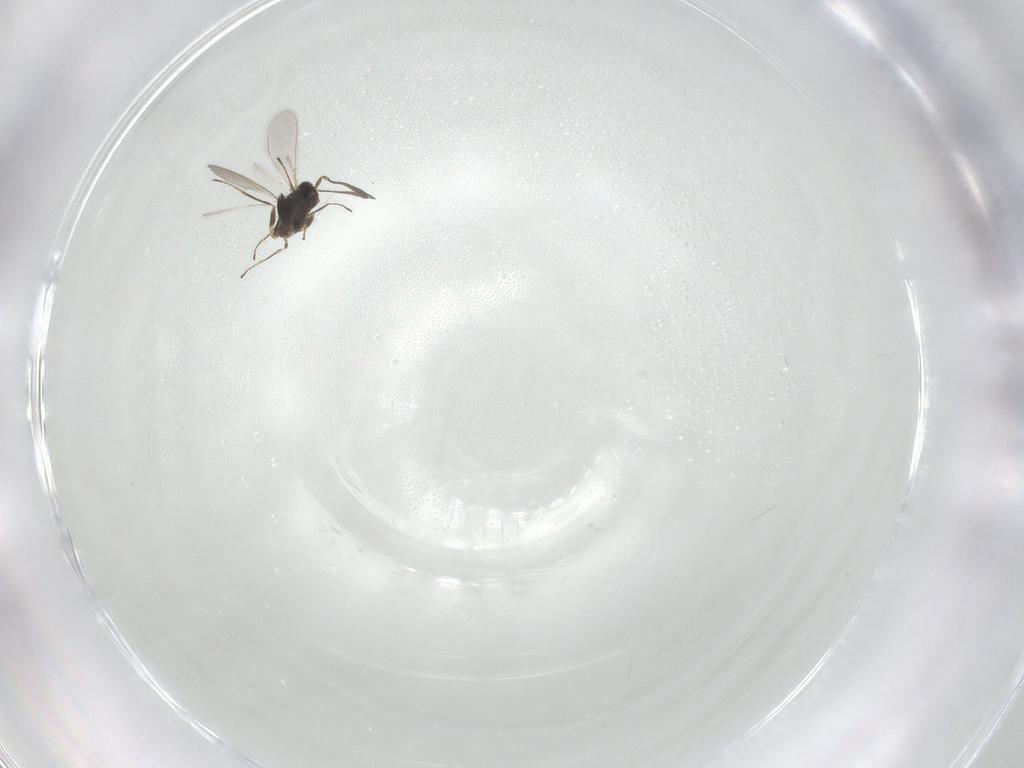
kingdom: Animalia
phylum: Arthropoda
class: Insecta
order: Hymenoptera
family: Mymaridae
